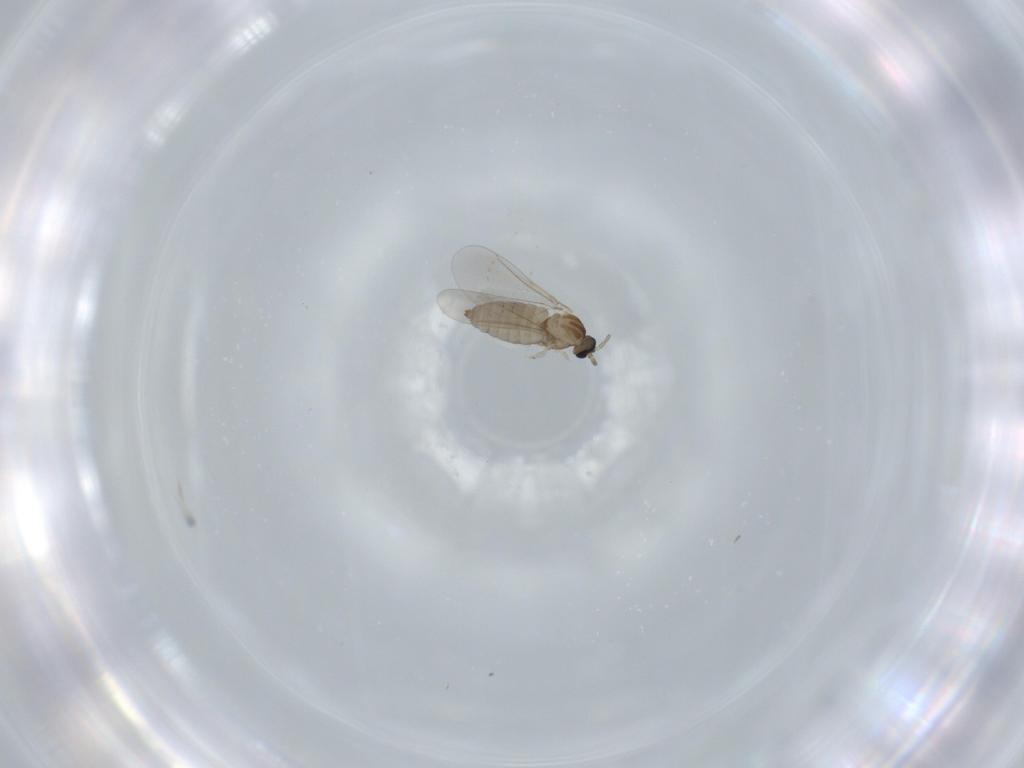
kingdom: Animalia
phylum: Arthropoda
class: Insecta
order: Diptera
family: Cecidomyiidae
